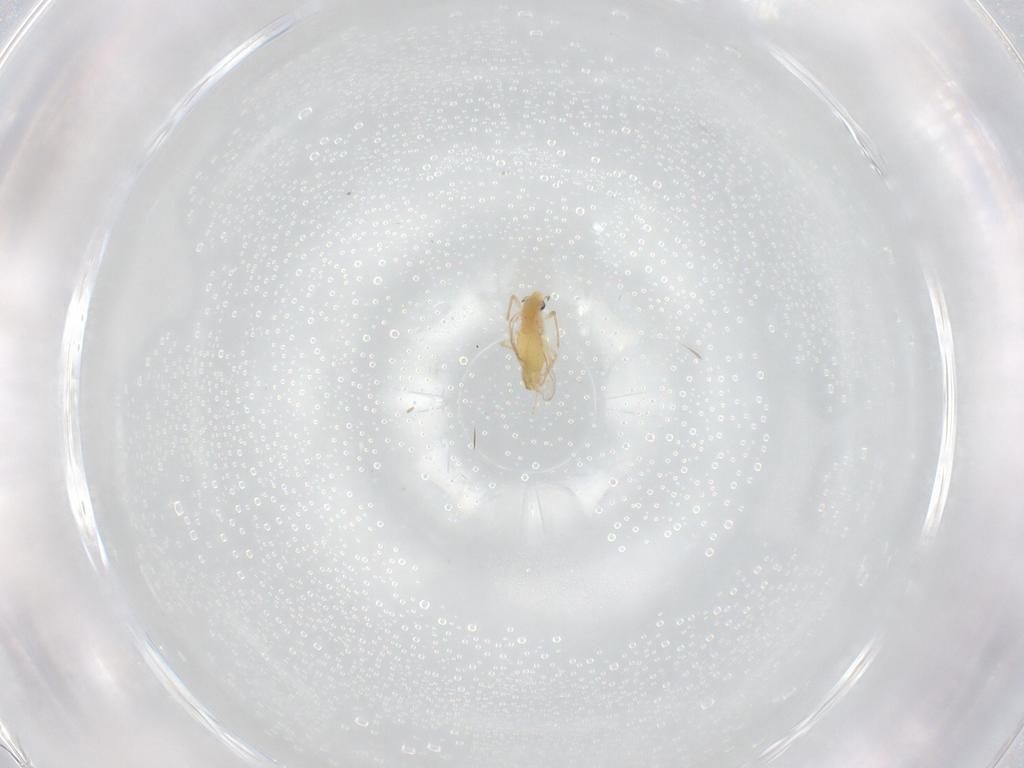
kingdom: Animalia
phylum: Arthropoda
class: Insecta
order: Diptera
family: Chironomidae
